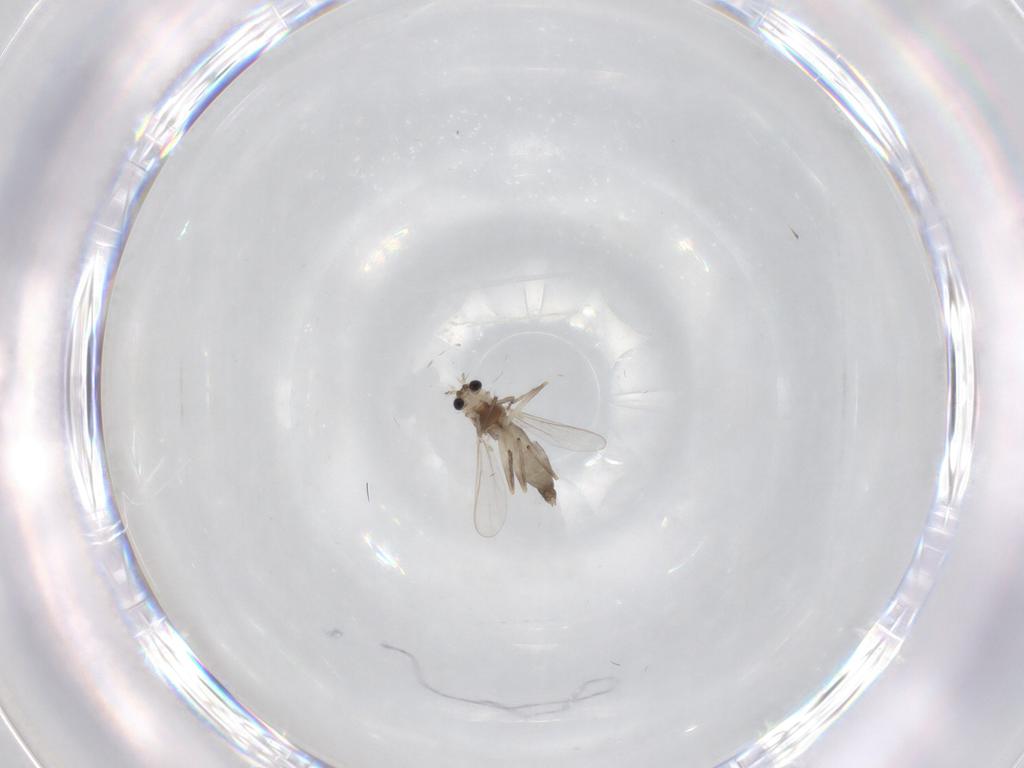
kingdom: Animalia
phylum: Arthropoda
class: Insecta
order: Diptera
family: Chironomidae
